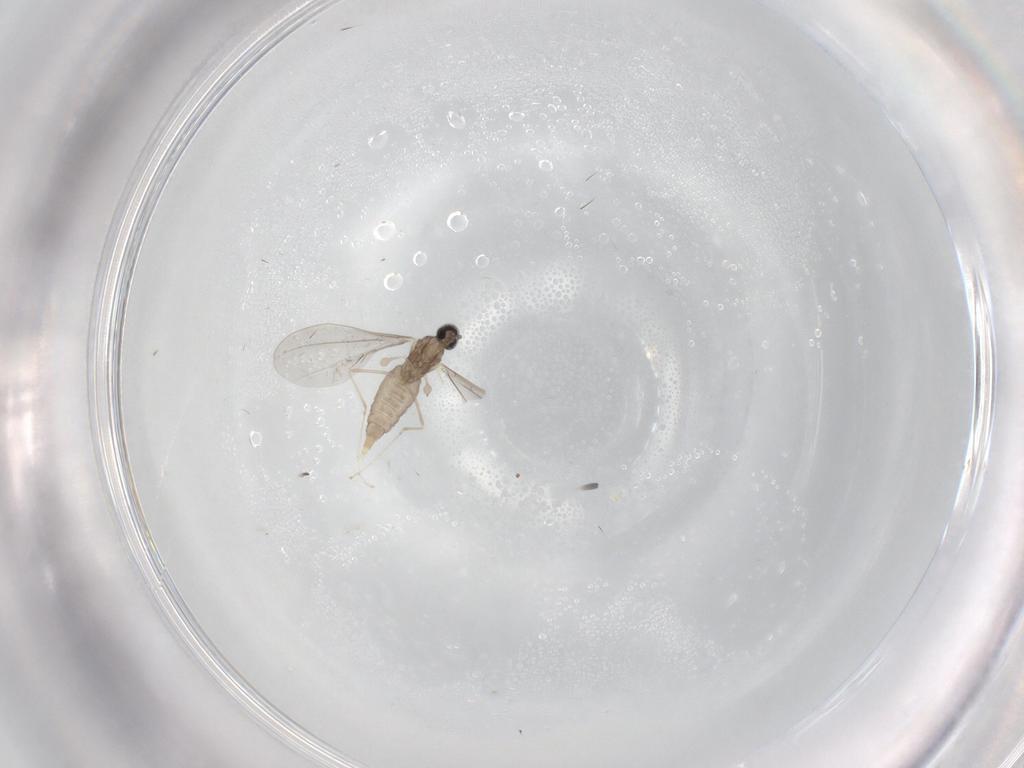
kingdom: Animalia
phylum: Arthropoda
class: Insecta
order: Diptera
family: Cecidomyiidae
